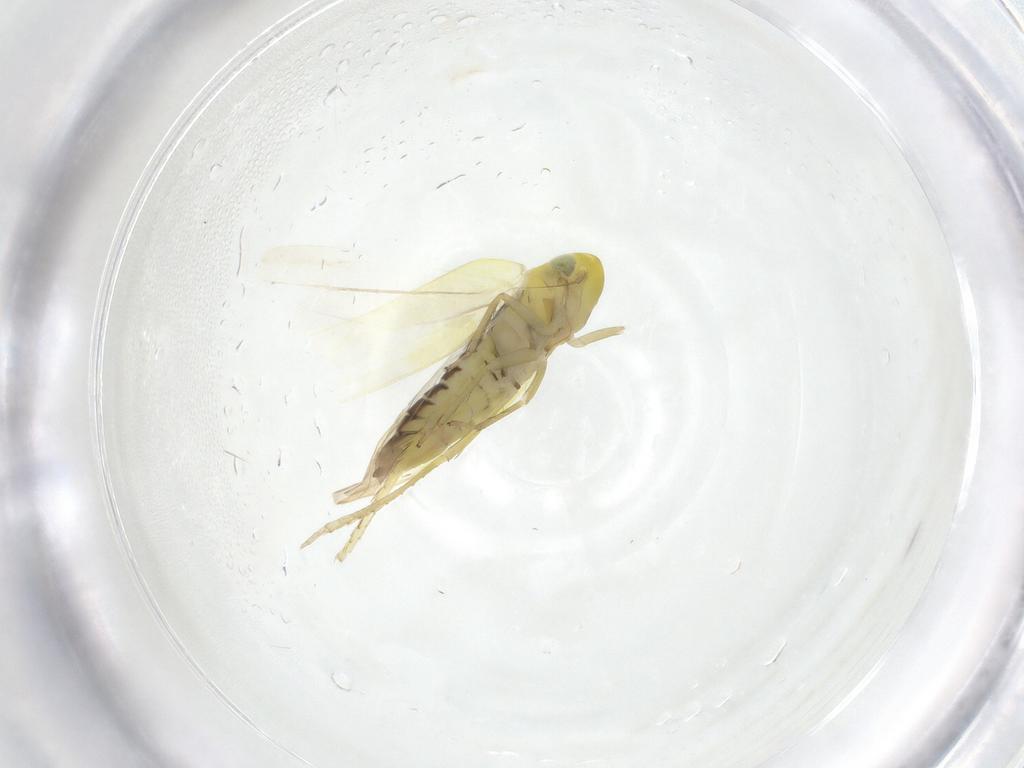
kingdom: Animalia
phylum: Arthropoda
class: Insecta
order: Hemiptera
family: Cicadellidae
